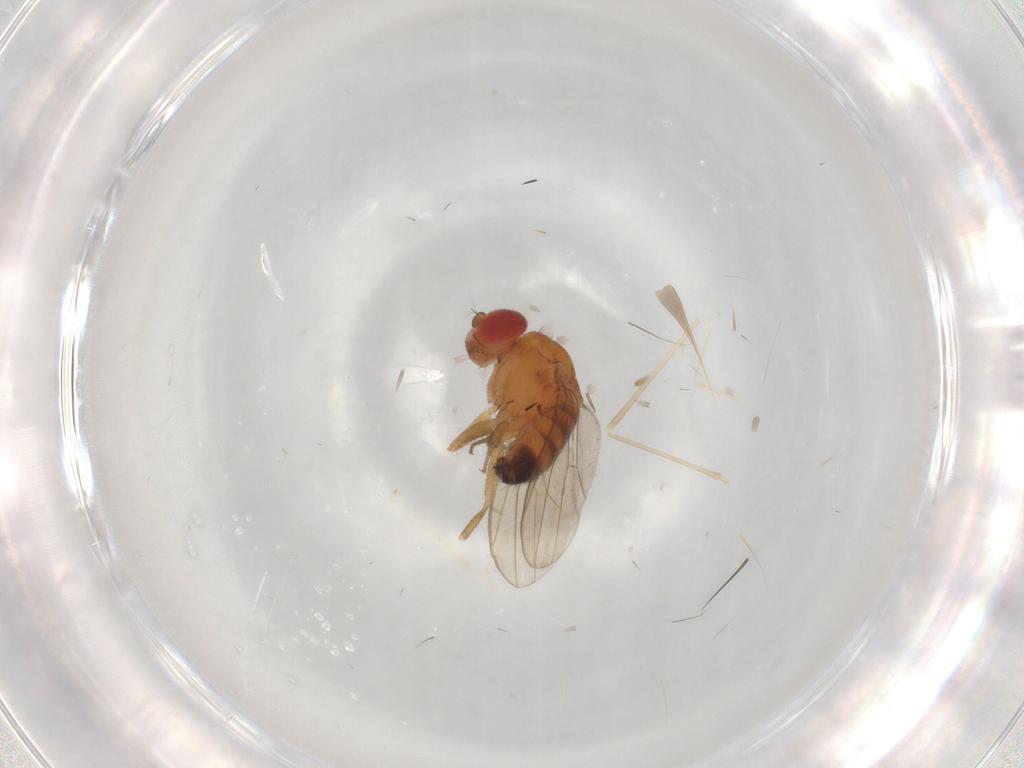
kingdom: Animalia
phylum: Arthropoda
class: Insecta
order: Diptera
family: Drosophilidae
